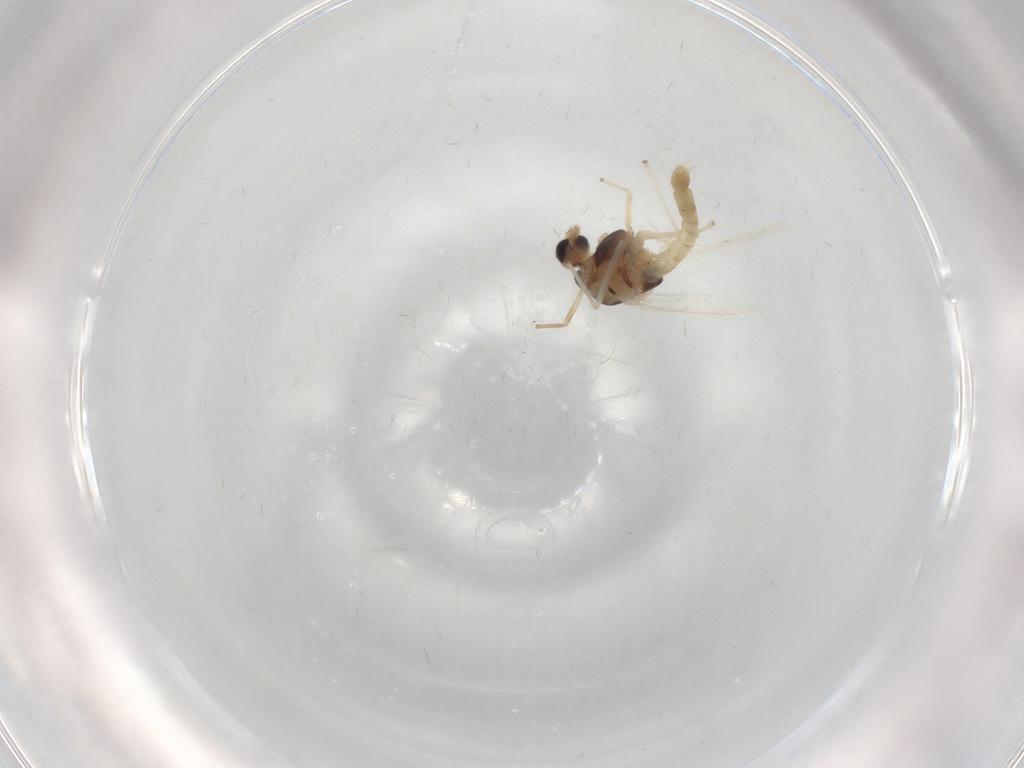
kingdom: Animalia
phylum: Arthropoda
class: Insecta
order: Diptera
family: Chironomidae
